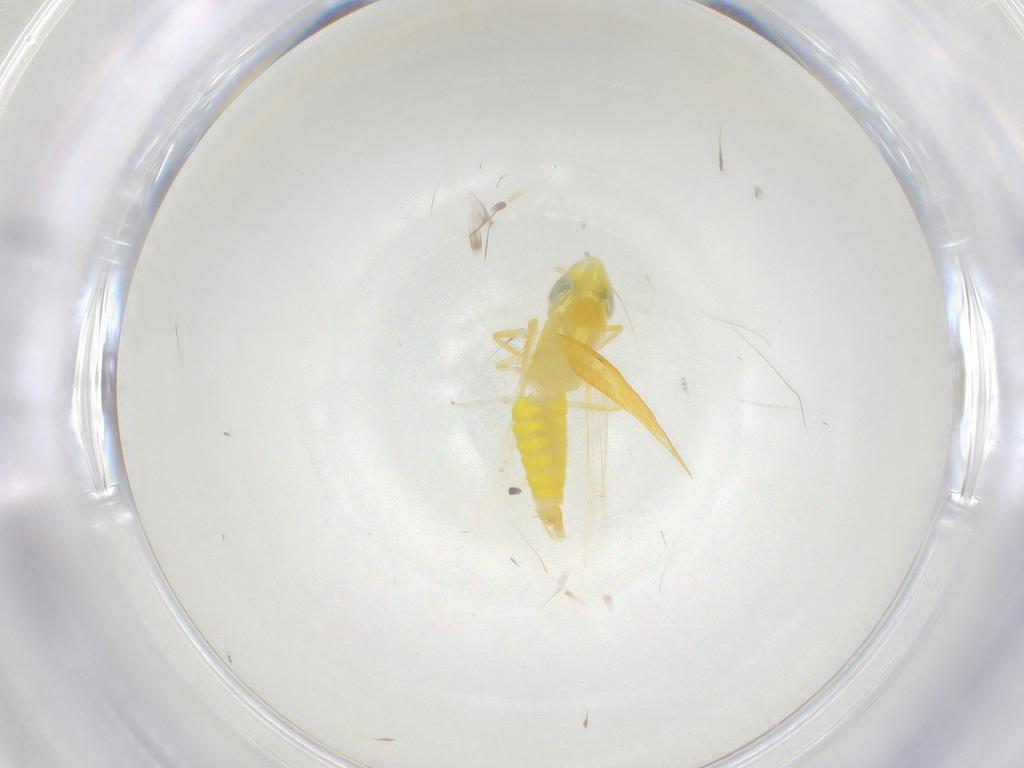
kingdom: Animalia
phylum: Arthropoda
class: Insecta
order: Hemiptera
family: Cicadellidae
